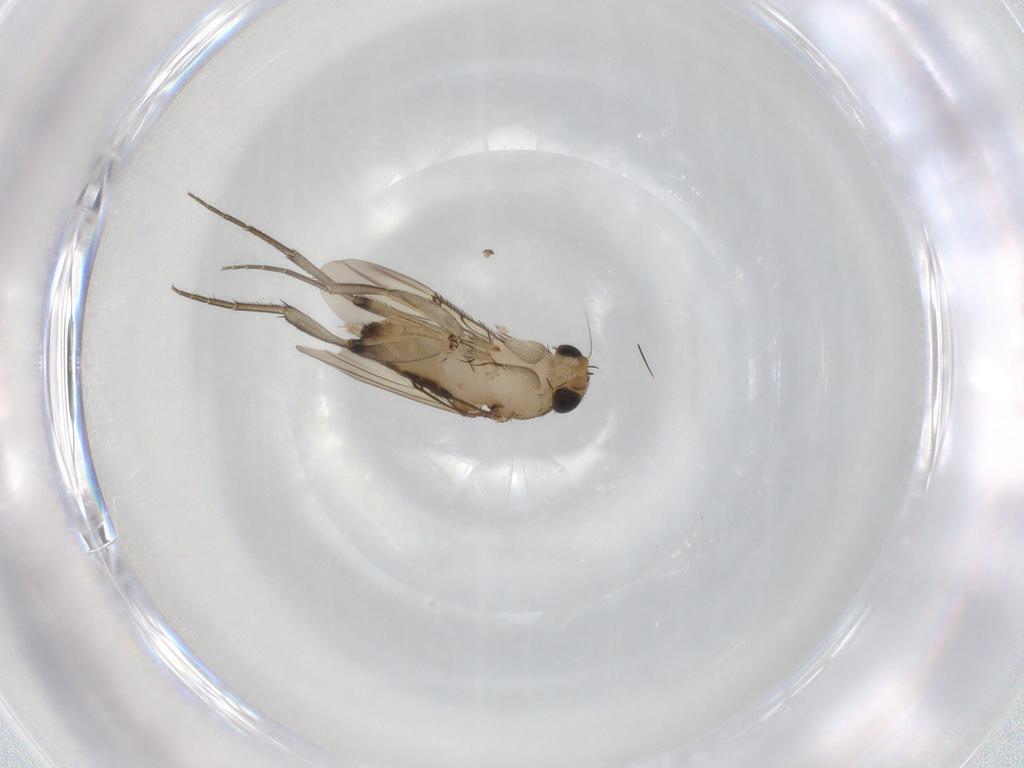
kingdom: Animalia
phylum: Arthropoda
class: Insecta
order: Diptera
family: Phoridae
